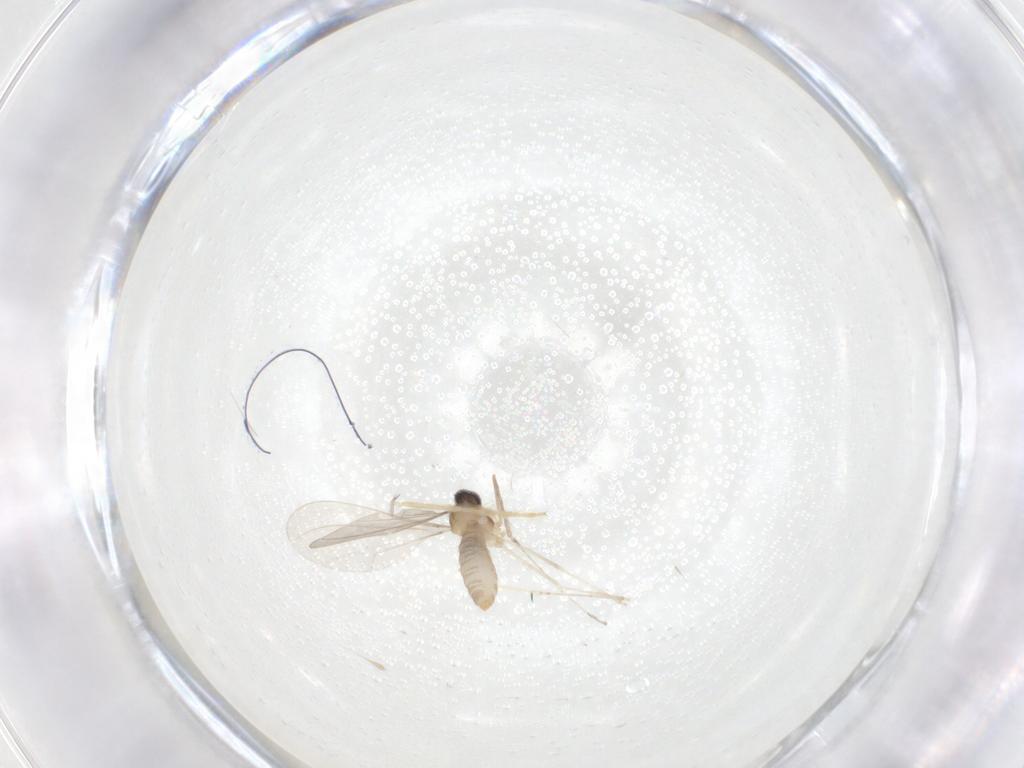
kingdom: Animalia
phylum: Arthropoda
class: Insecta
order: Diptera
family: Cecidomyiidae
